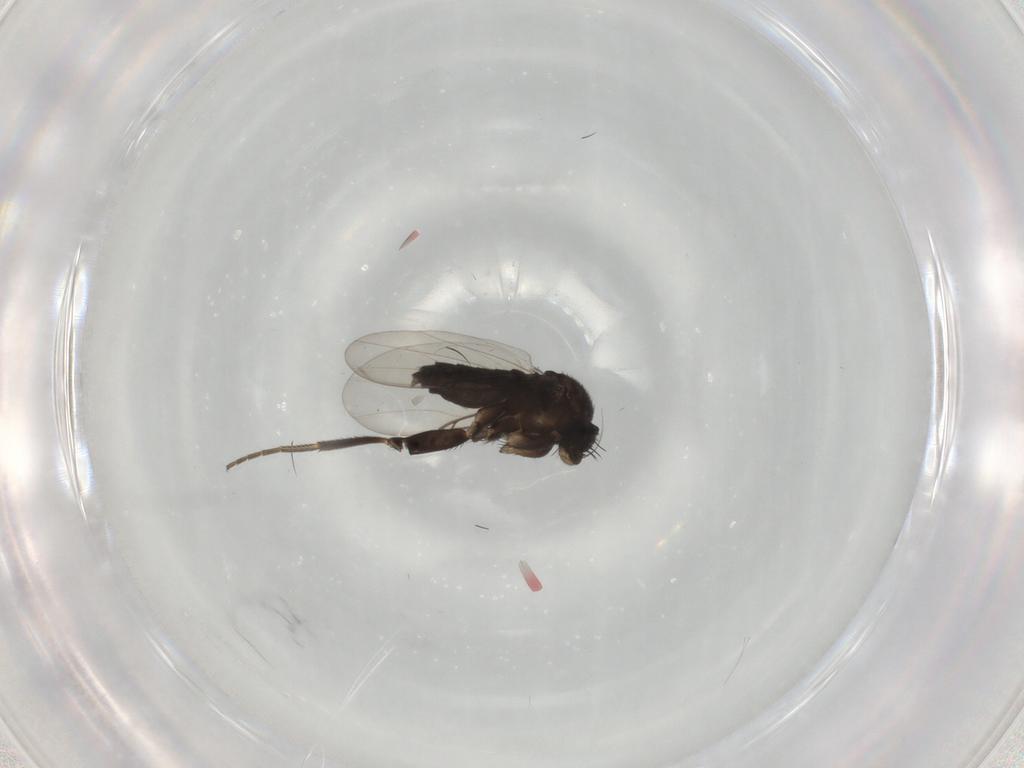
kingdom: Animalia
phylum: Arthropoda
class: Insecta
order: Diptera
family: Phoridae
